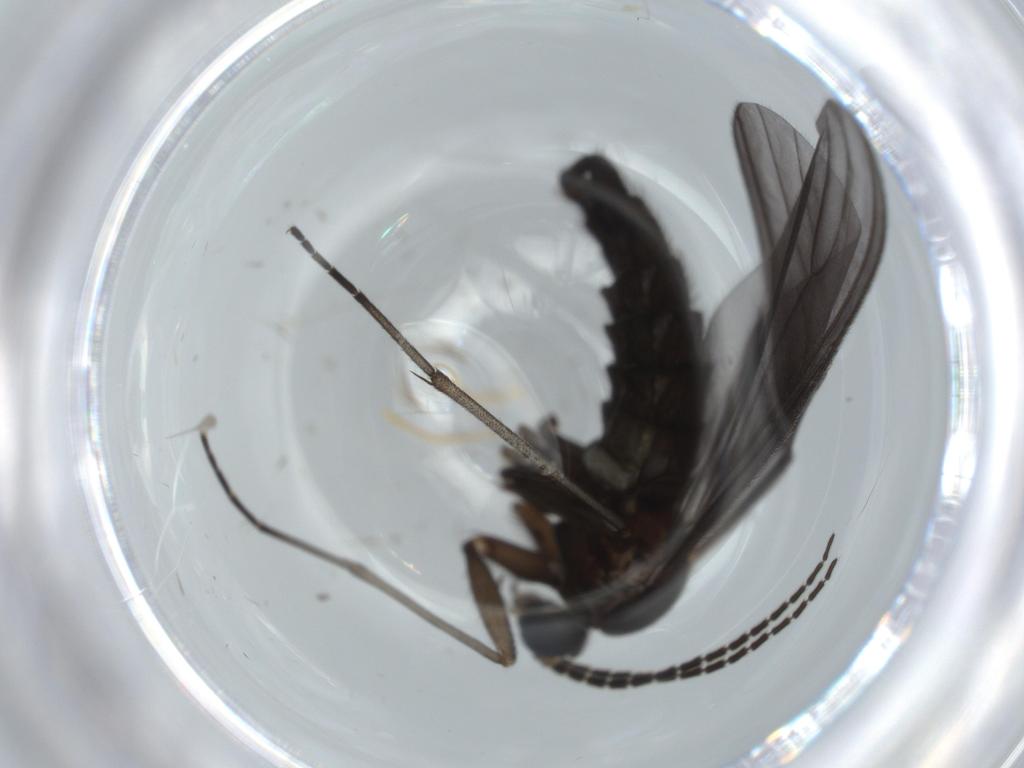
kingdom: Animalia
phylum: Arthropoda
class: Insecta
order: Diptera
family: Sciaridae
